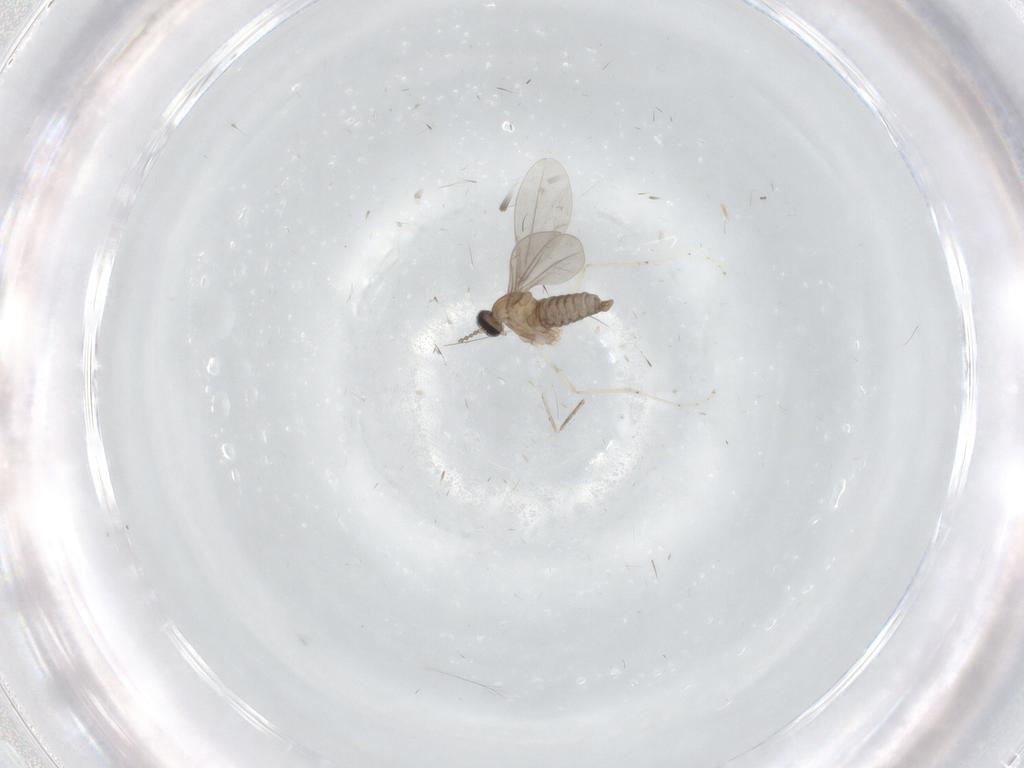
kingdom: Animalia
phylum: Arthropoda
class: Insecta
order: Diptera
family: Cecidomyiidae
